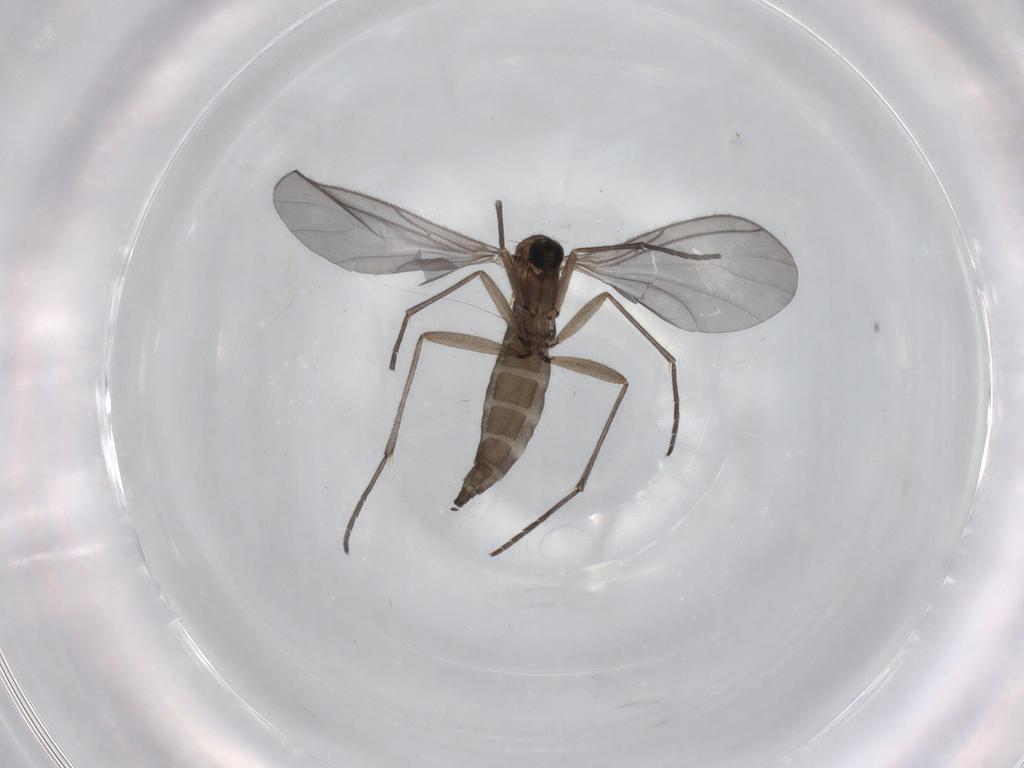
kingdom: Animalia
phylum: Arthropoda
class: Insecta
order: Diptera
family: Sciaridae
